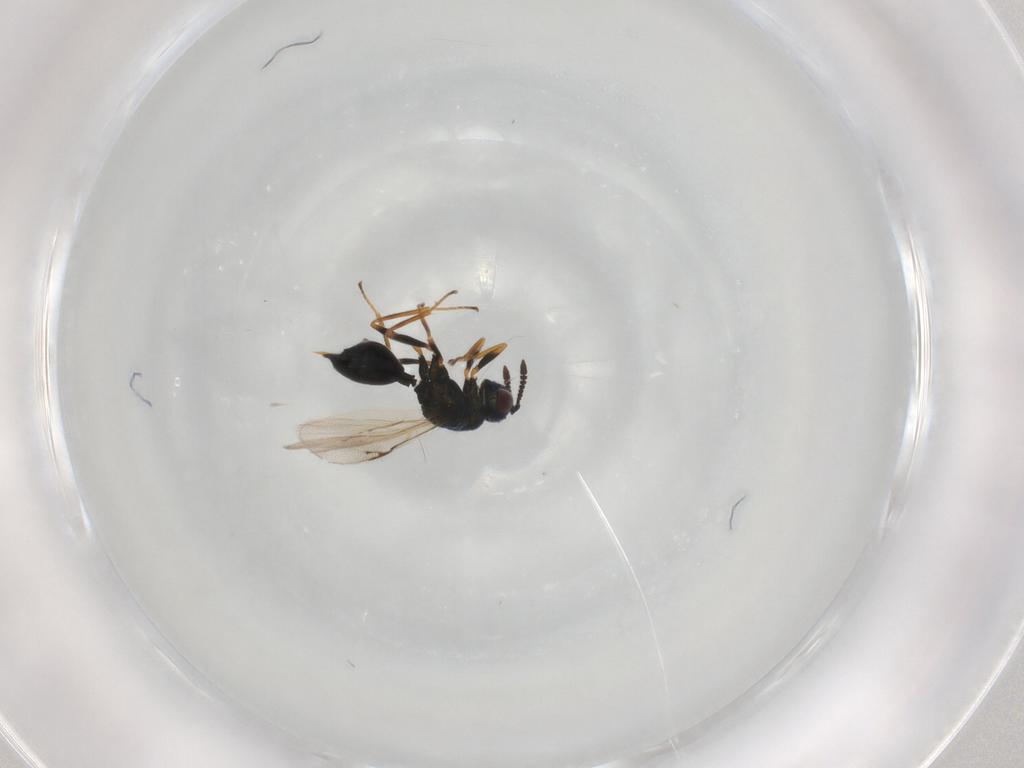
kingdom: Animalia
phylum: Arthropoda
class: Insecta
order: Hymenoptera
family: Chalcidoidea_incertae_sedis
